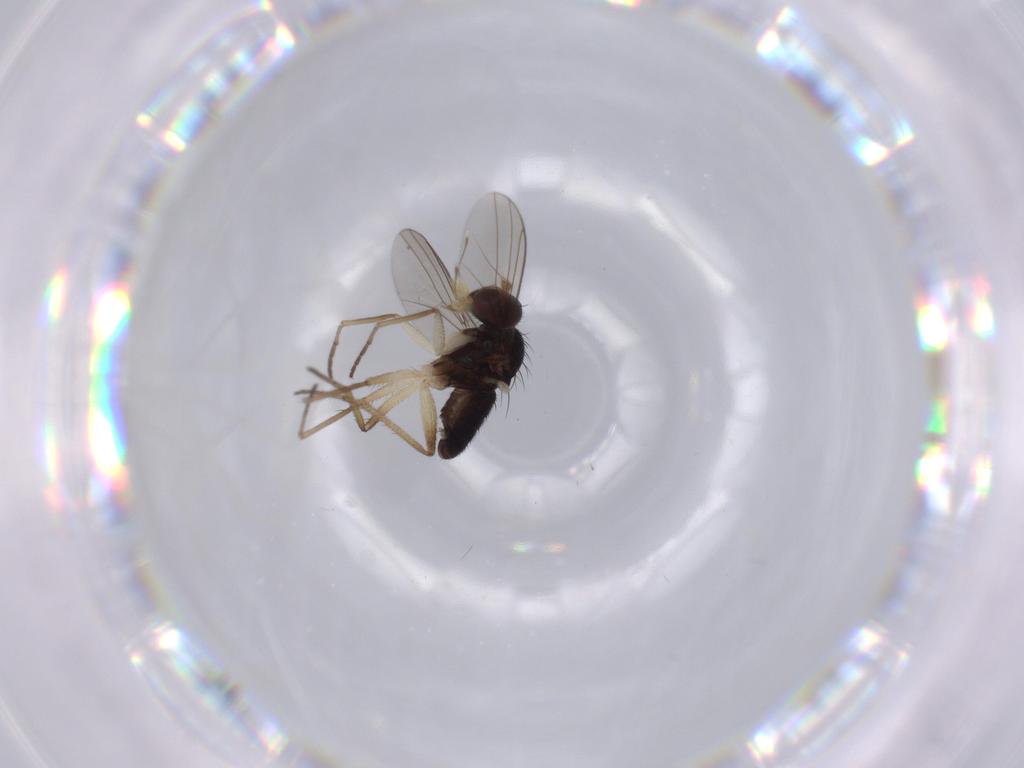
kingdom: Animalia
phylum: Arthropoda
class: Insecta
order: Diptera
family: Dolichopodidae
